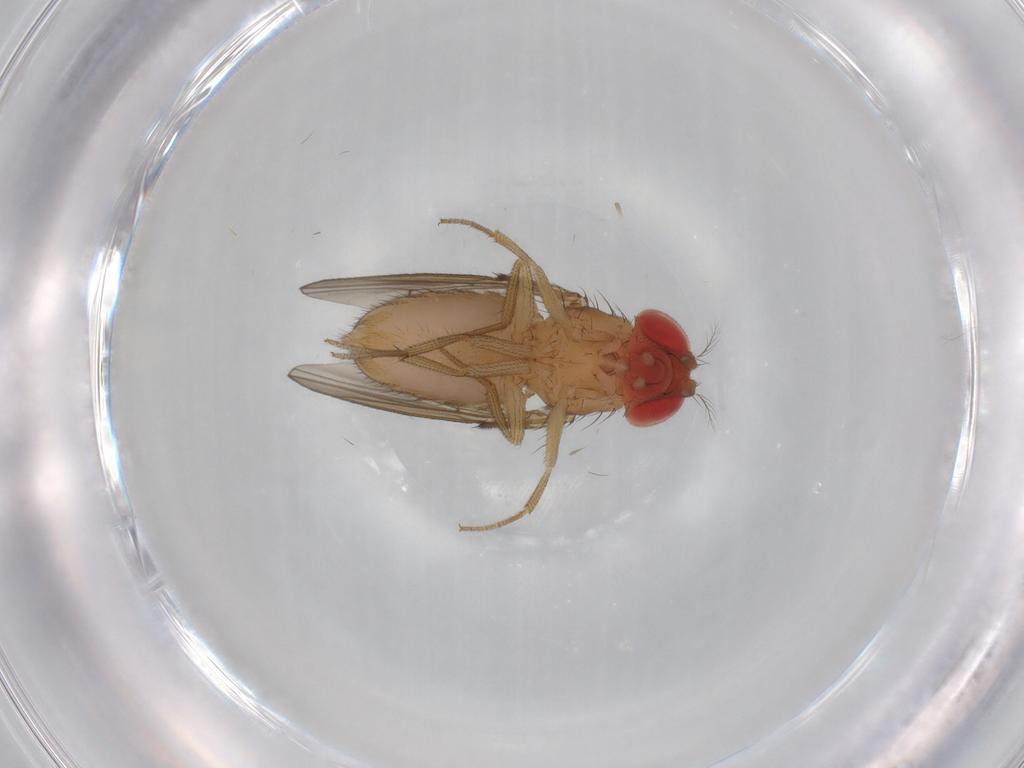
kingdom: Animalia
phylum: Arthropoda
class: Insecta
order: Diptera
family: Drosophilidae
